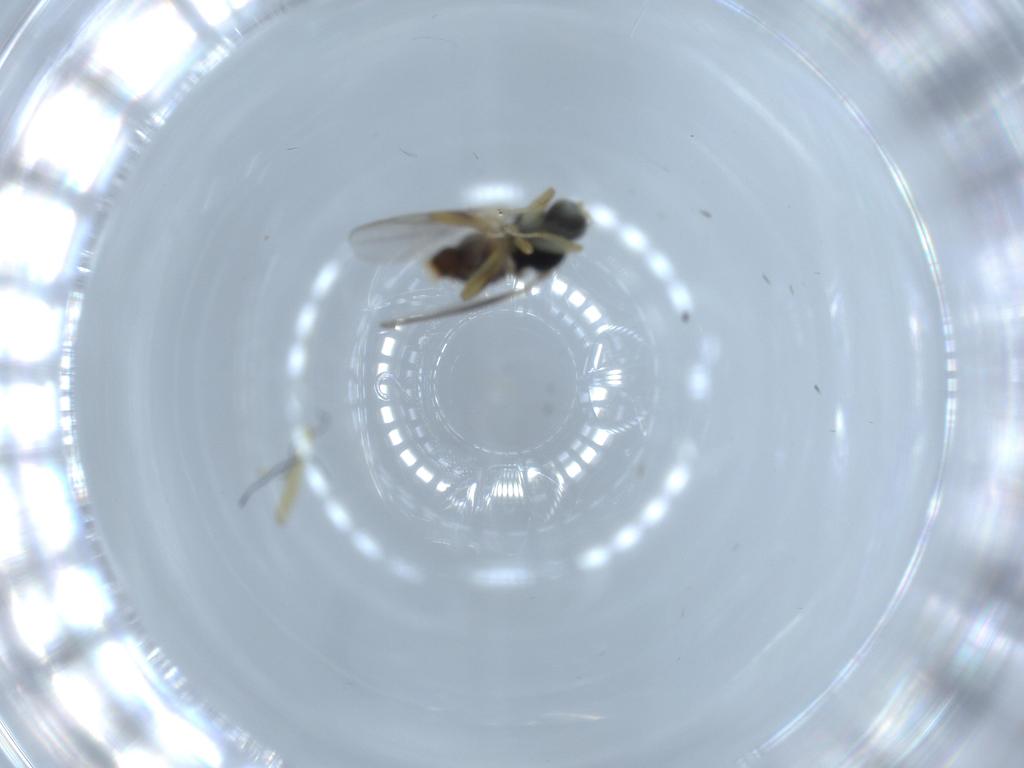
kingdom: Animalia
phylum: Arthropoda
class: Insecta
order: Diptera
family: Hybotidae
